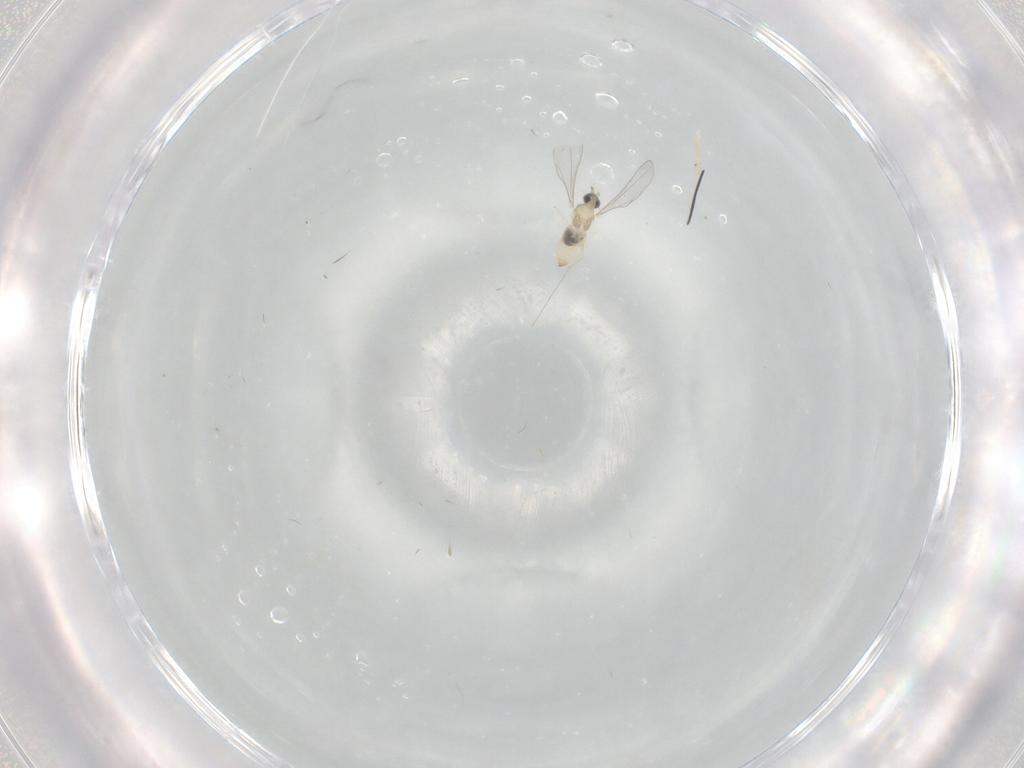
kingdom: Animalia
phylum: Arthropoda
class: Insecta
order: Diptera
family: Cecidomyiidae
